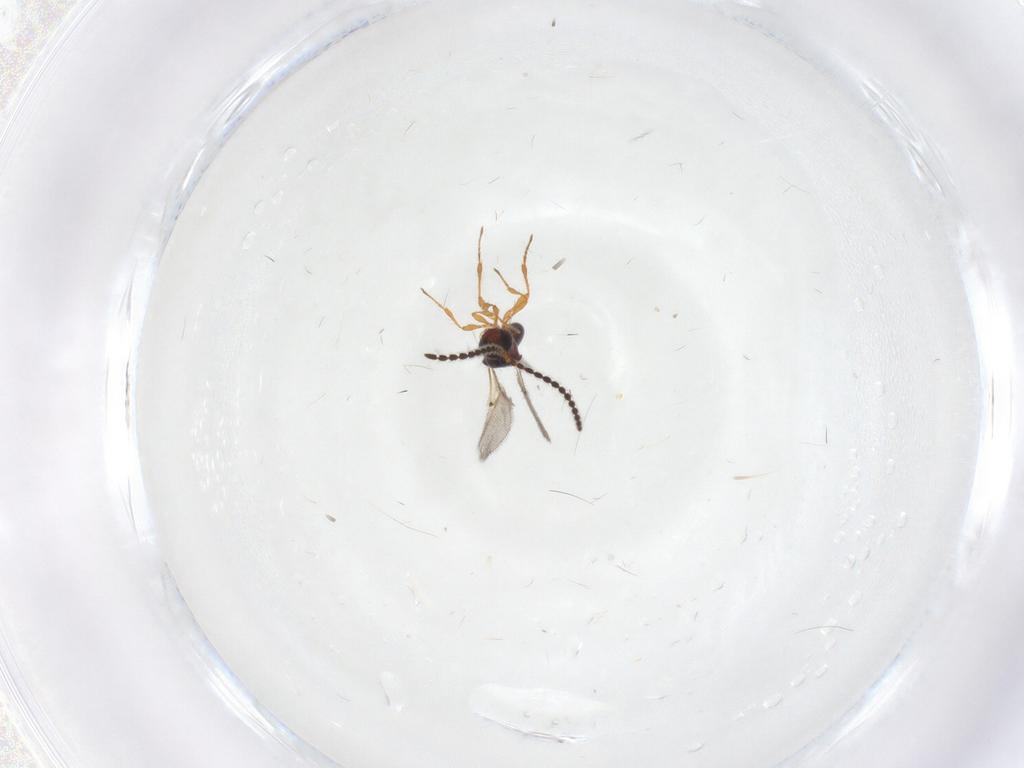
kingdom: Animalia
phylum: Arthropoda
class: Insecta
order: Hymenoptera
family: Diapriidae
